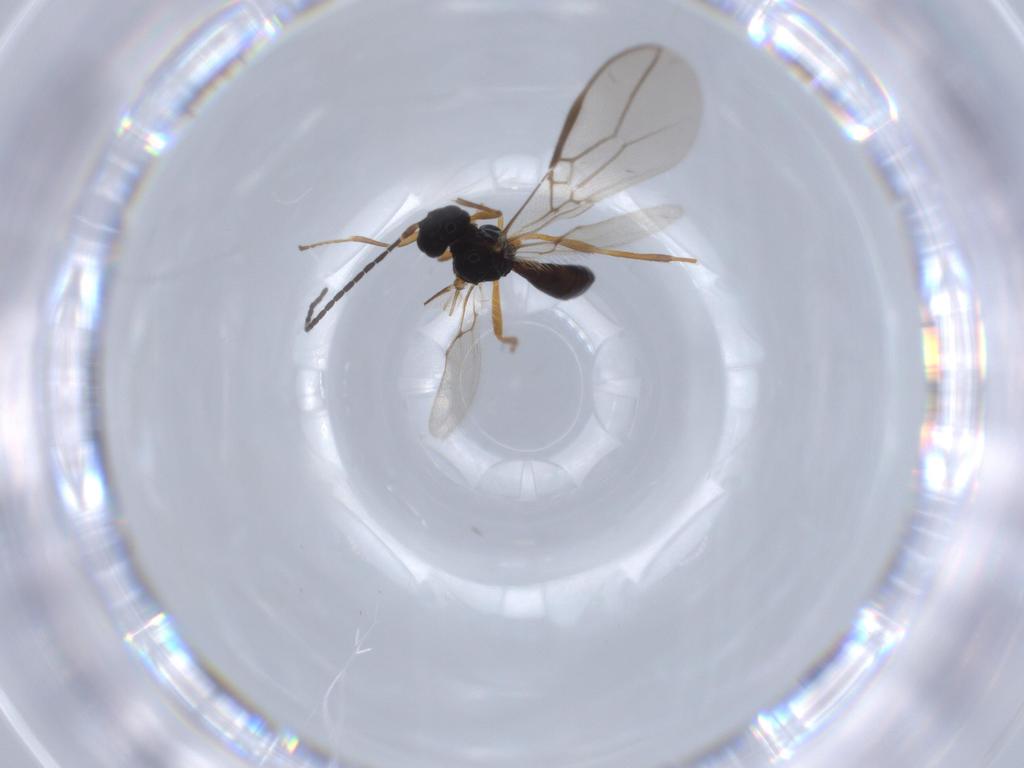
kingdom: Animalia
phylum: Arthropoda
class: Insecta
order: Hymenoptera
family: Braconidae
